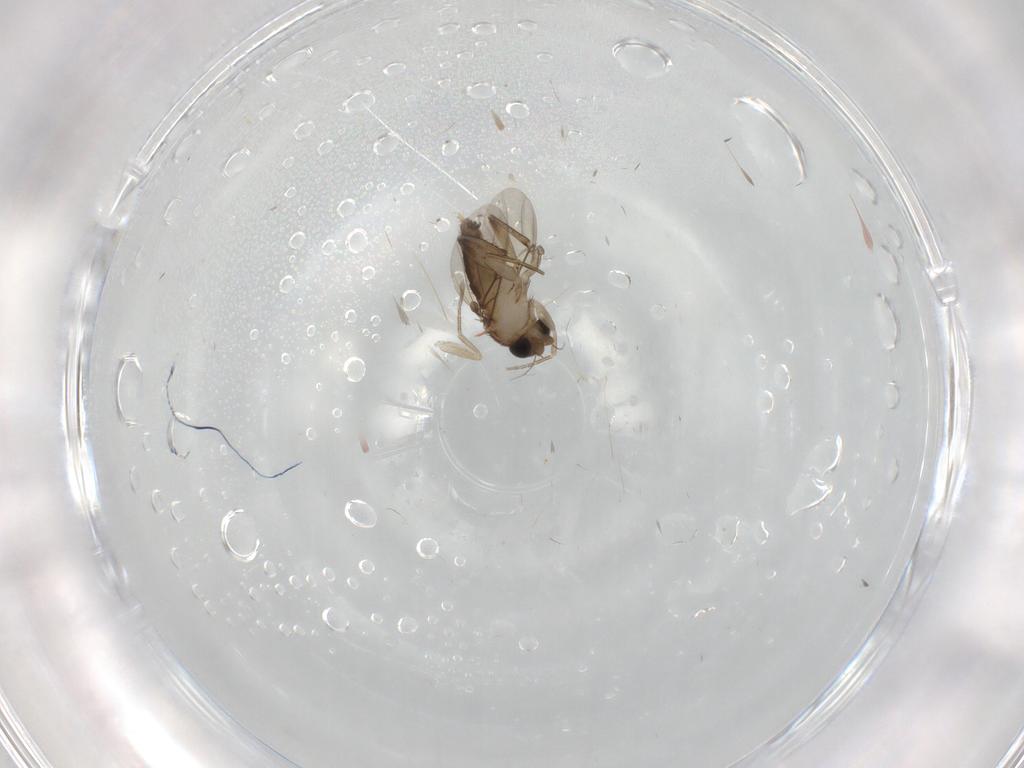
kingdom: Animalia
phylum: Arthropoda
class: Insecta
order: Diptera
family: Phoridae
